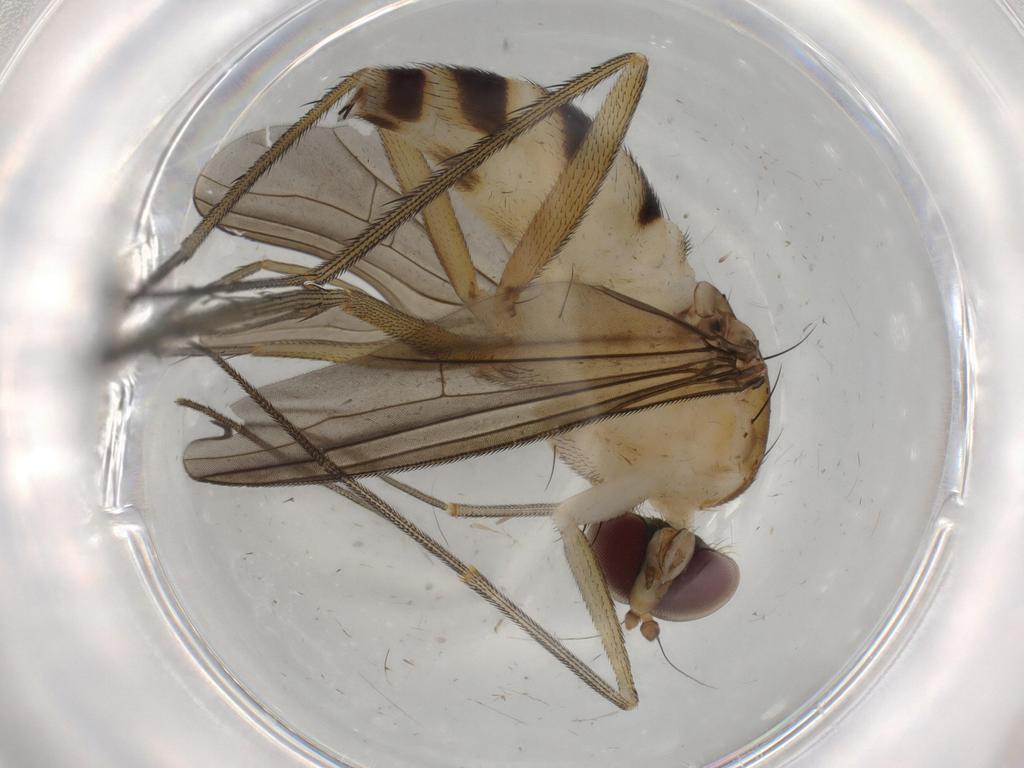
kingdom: Animalia
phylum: Arthropoda
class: Insecta
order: Diptera
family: Dolichopodidae
